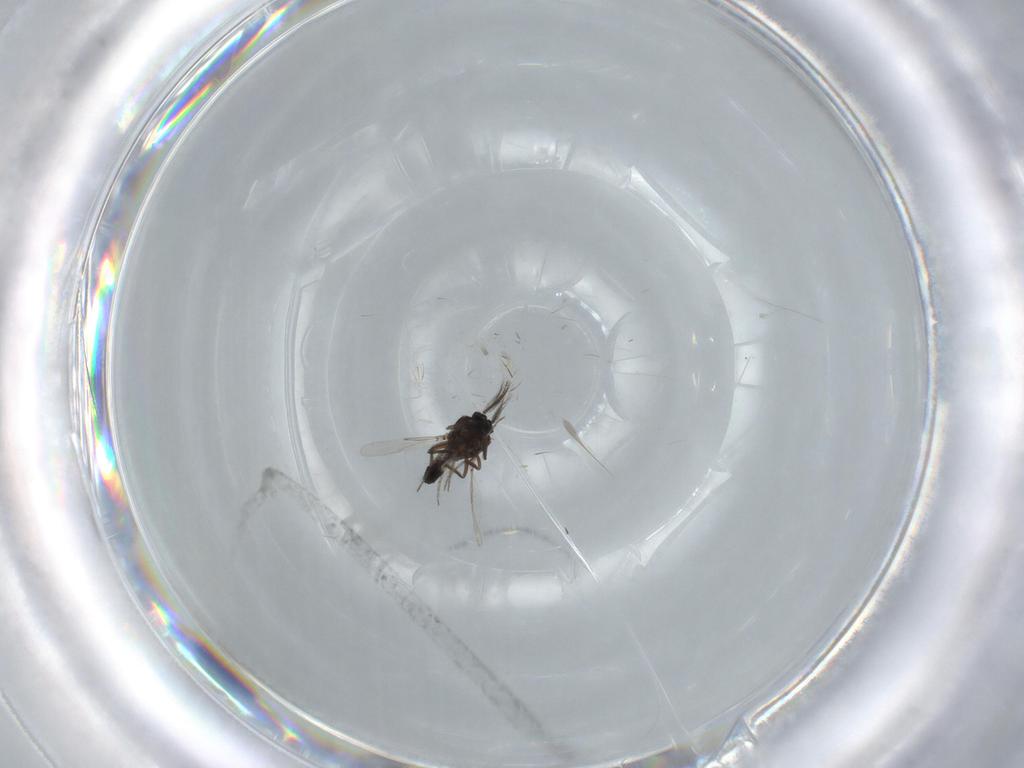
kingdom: Animalia
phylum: Arthropoda
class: Insecta
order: Diptera
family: Ceratopogonidae
